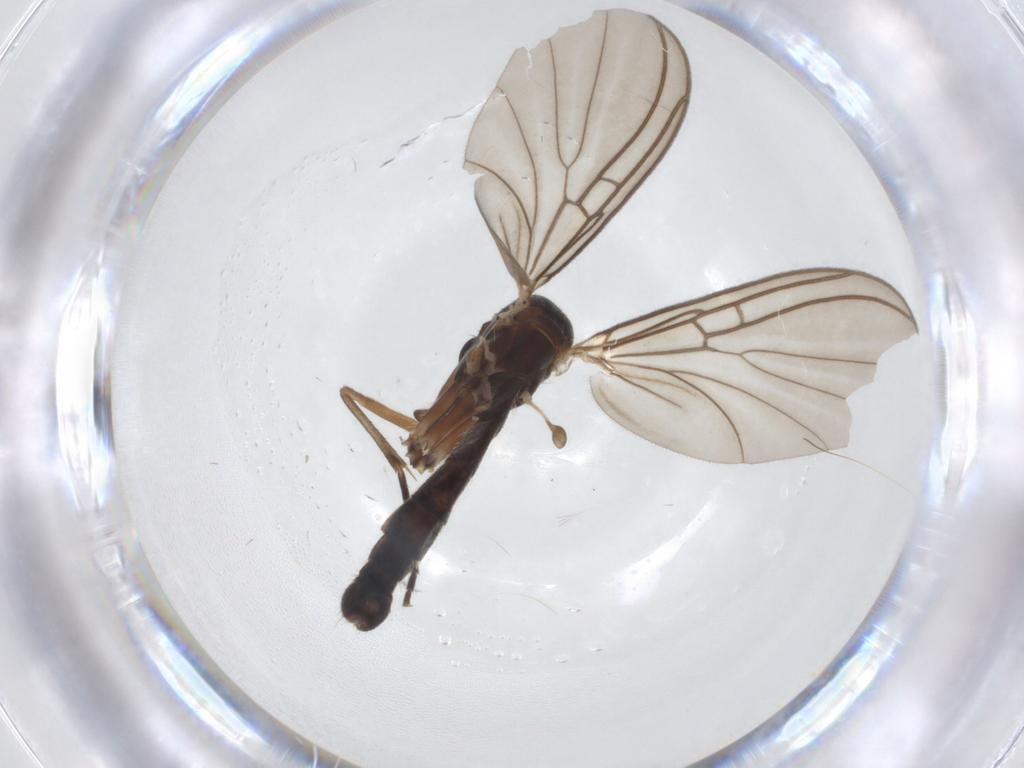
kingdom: Animalia
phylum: Arthropoda
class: Insecta
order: Diptera
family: Mycetophilidae
